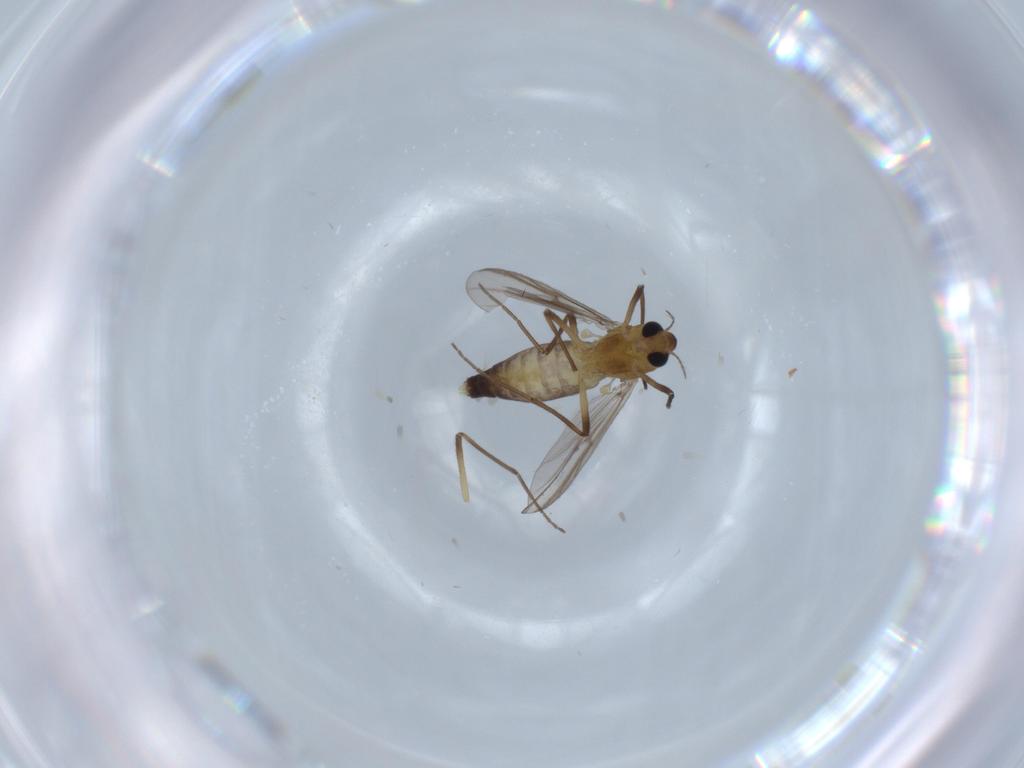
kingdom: Animalia
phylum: Arthropoda
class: Insecta
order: Diptera
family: Chironomidae
